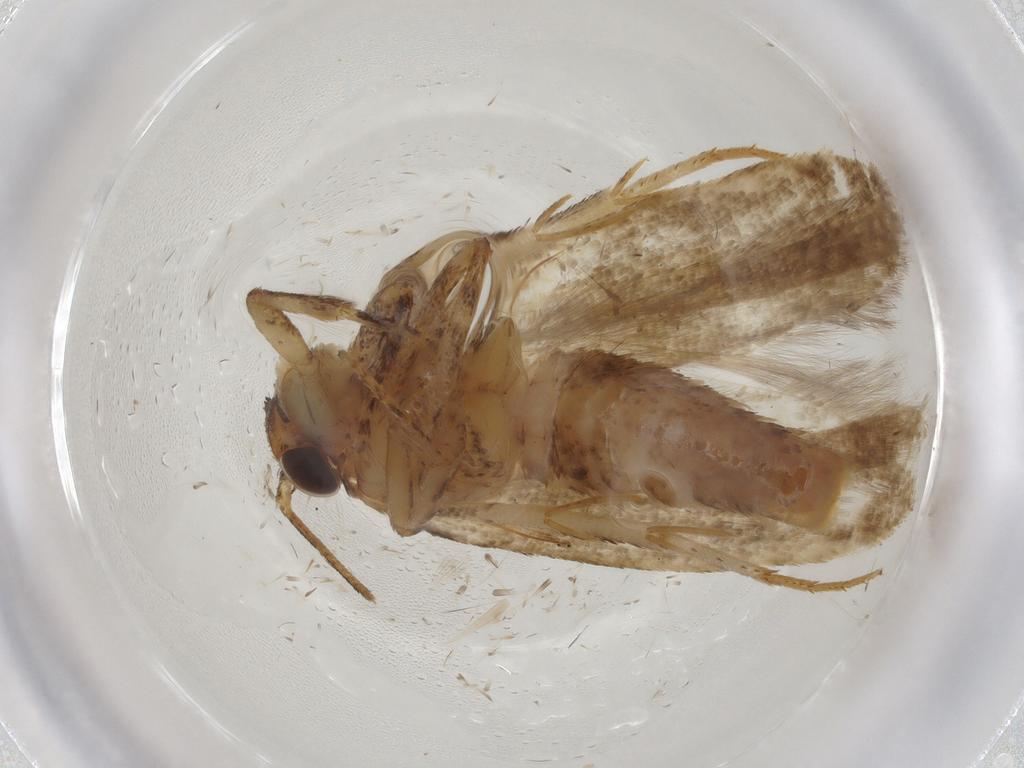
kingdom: Animalia
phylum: Arthropoda
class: Insecta
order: Lepidoptera
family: Gelechiidae
